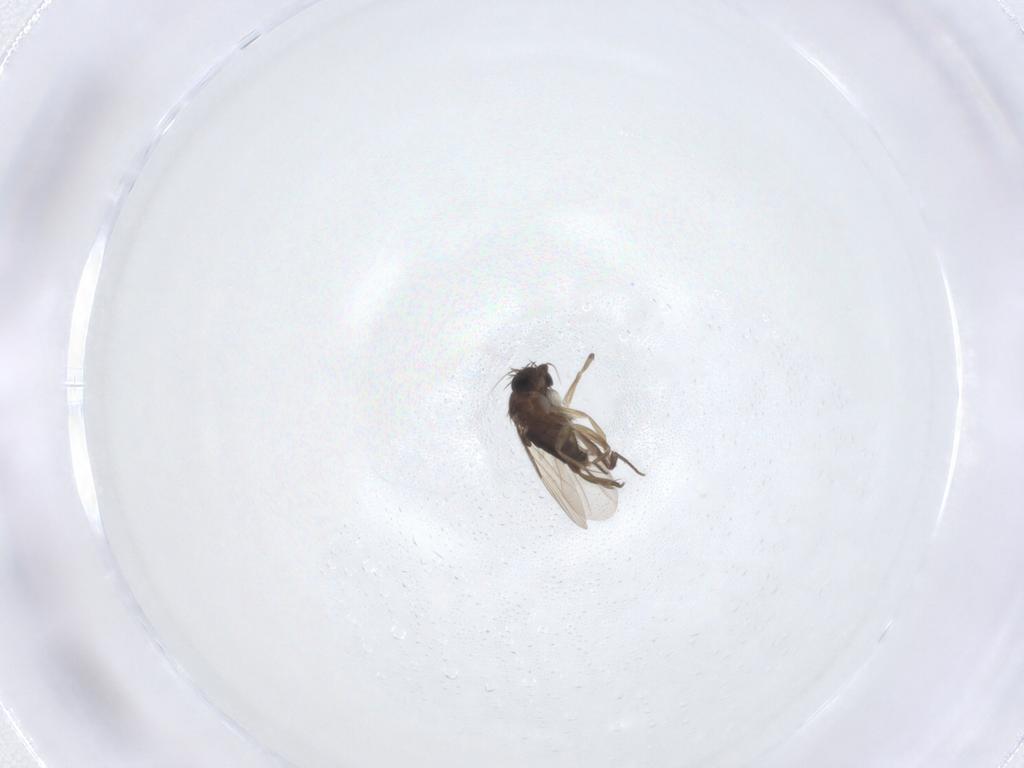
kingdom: Animalia
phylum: Arthropoda
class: Insecta
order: Diptera
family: Phoridae
